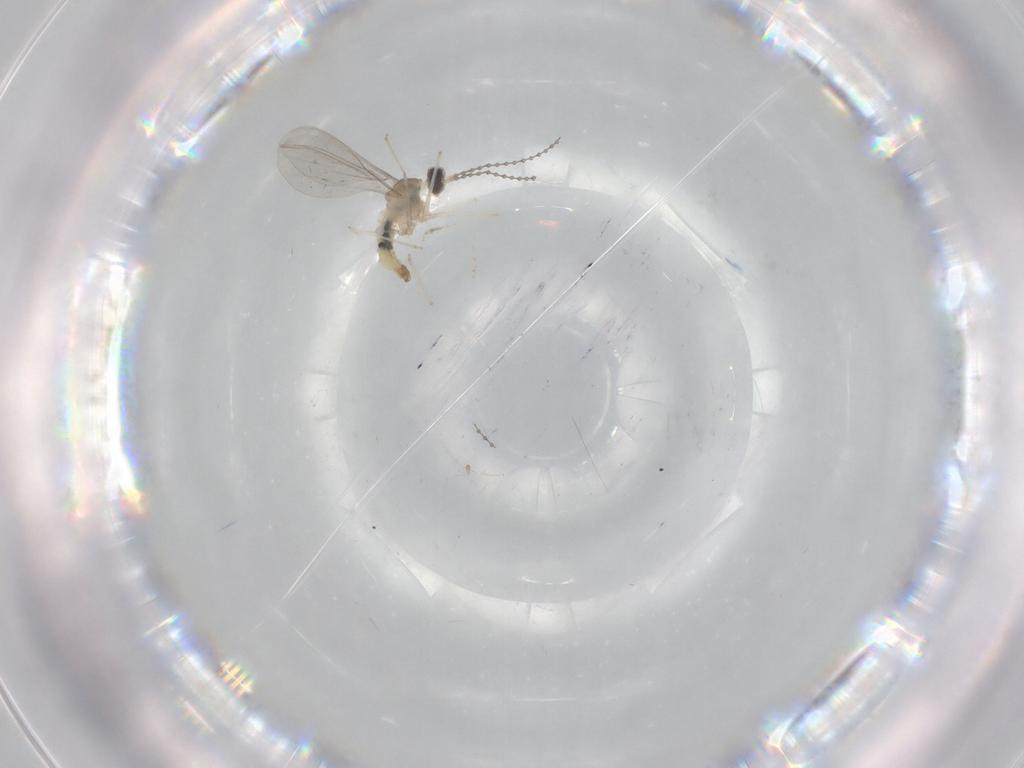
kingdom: Animalia
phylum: Arthropoda
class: Insecta
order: Diptera
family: Cecidomyiidae
